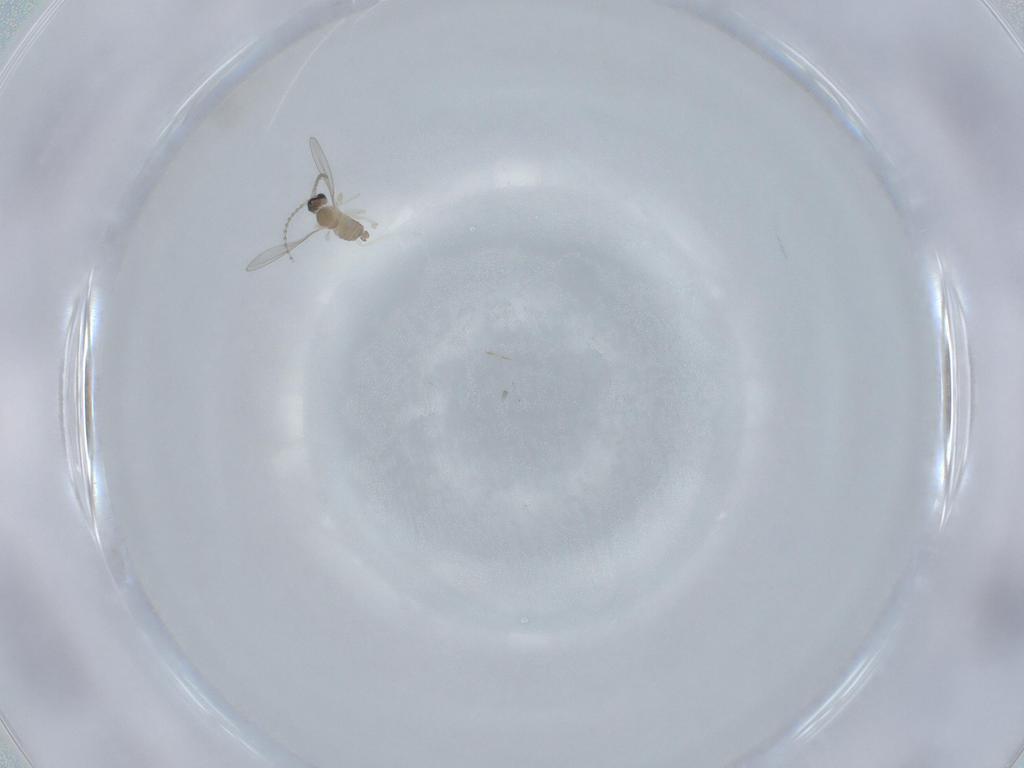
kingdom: Animalia
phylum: Arthropoda
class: Insecta
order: Diptera
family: Cecidomyiidae
